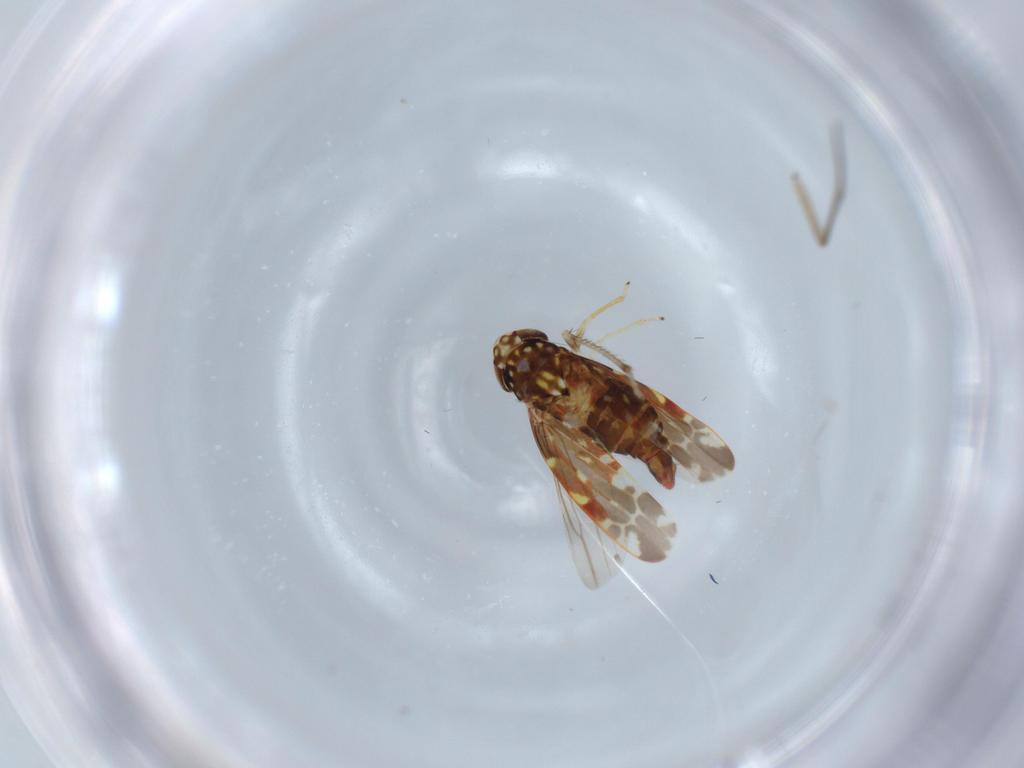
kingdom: Animalia
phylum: Arthropoda
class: Insecta
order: Hemiptera
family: Cicadellidae
